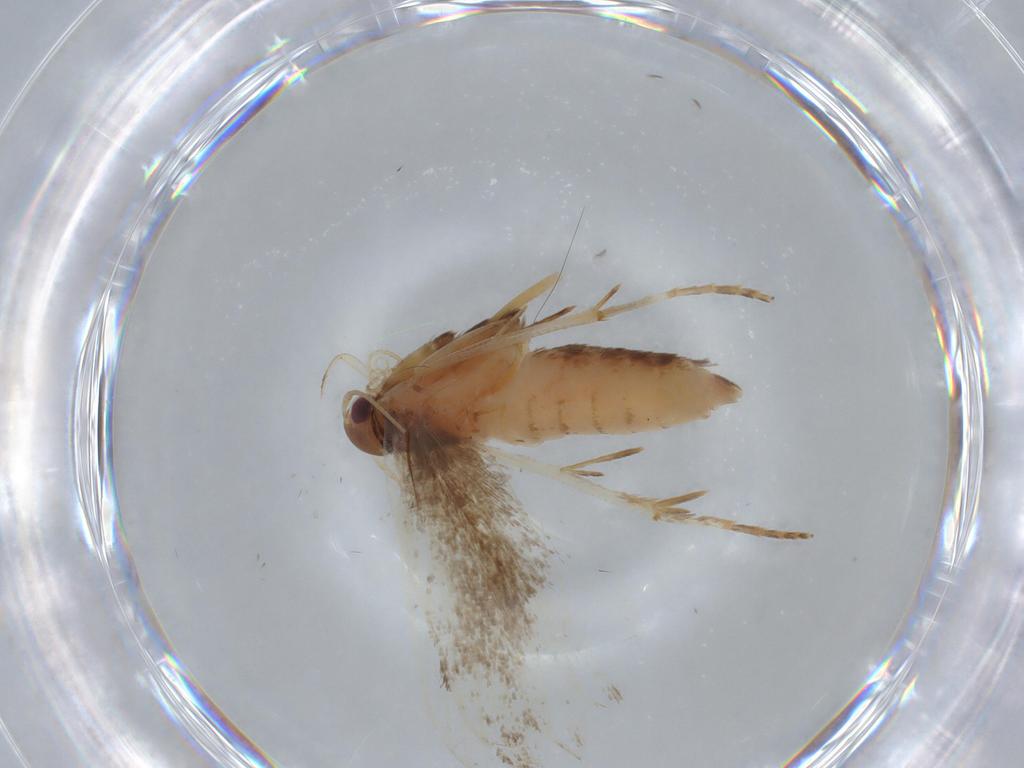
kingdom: Animalia
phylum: Arthropoda
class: Insecta
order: Lepidoptera
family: Gelechiidae
